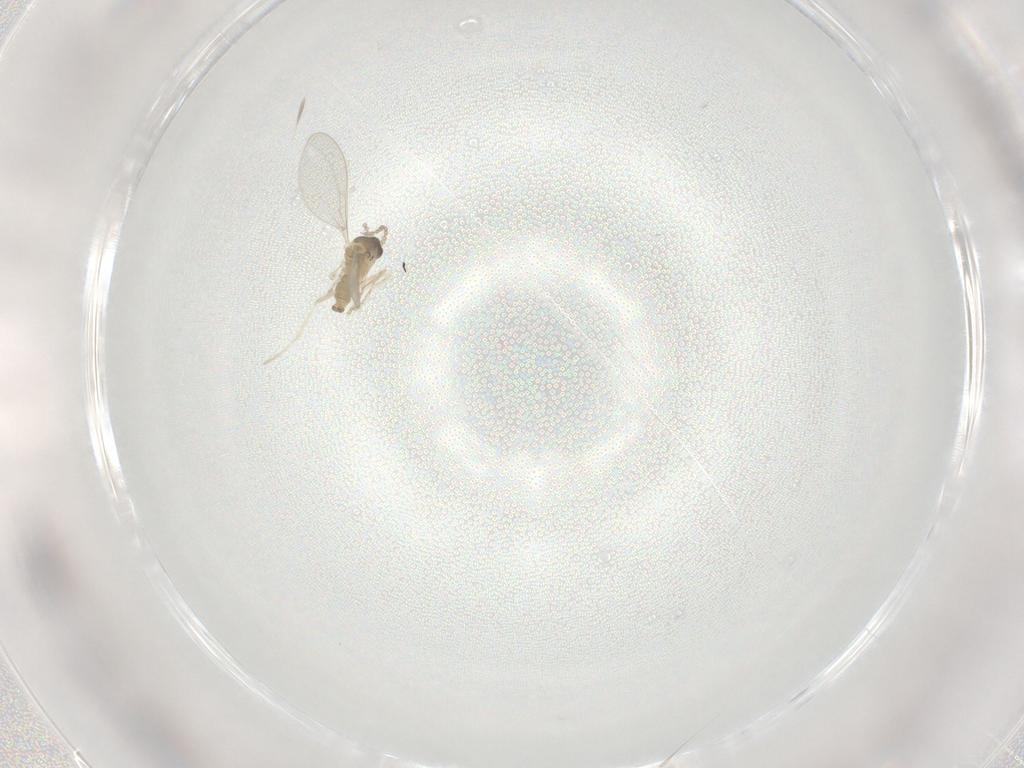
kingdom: Animalia
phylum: Arthropoda
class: Insecta
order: Diptera
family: Cecidomyiidae
